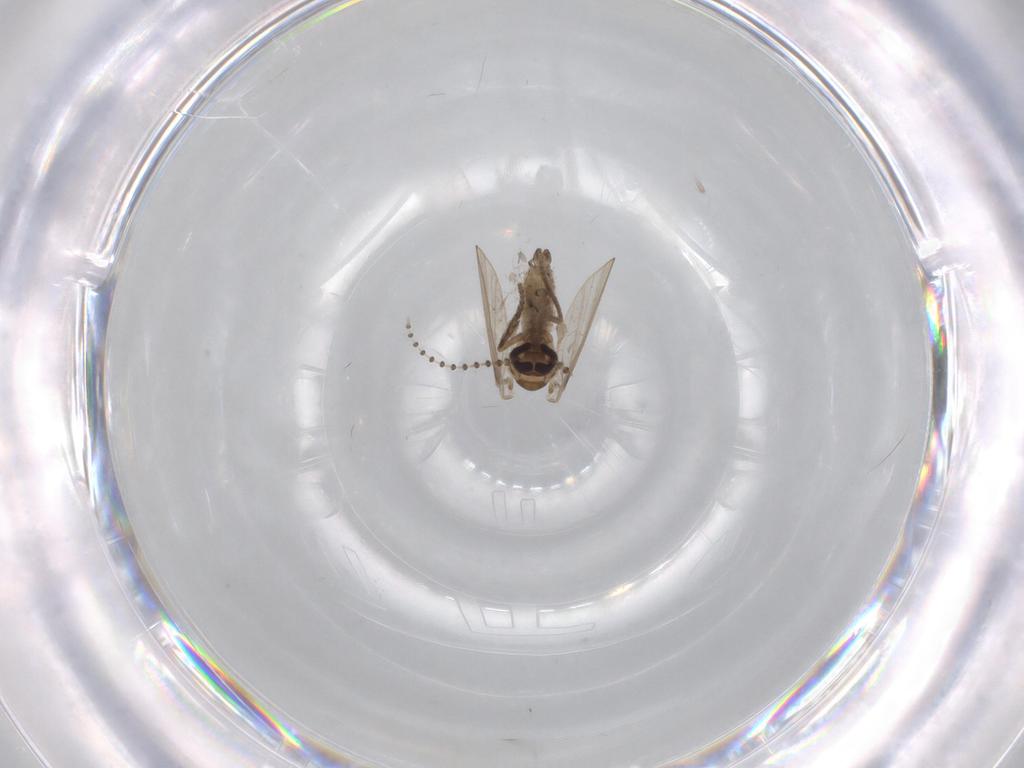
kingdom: Animalia
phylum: Arthropoda
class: Insecta
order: Diptera
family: Psychodidae
